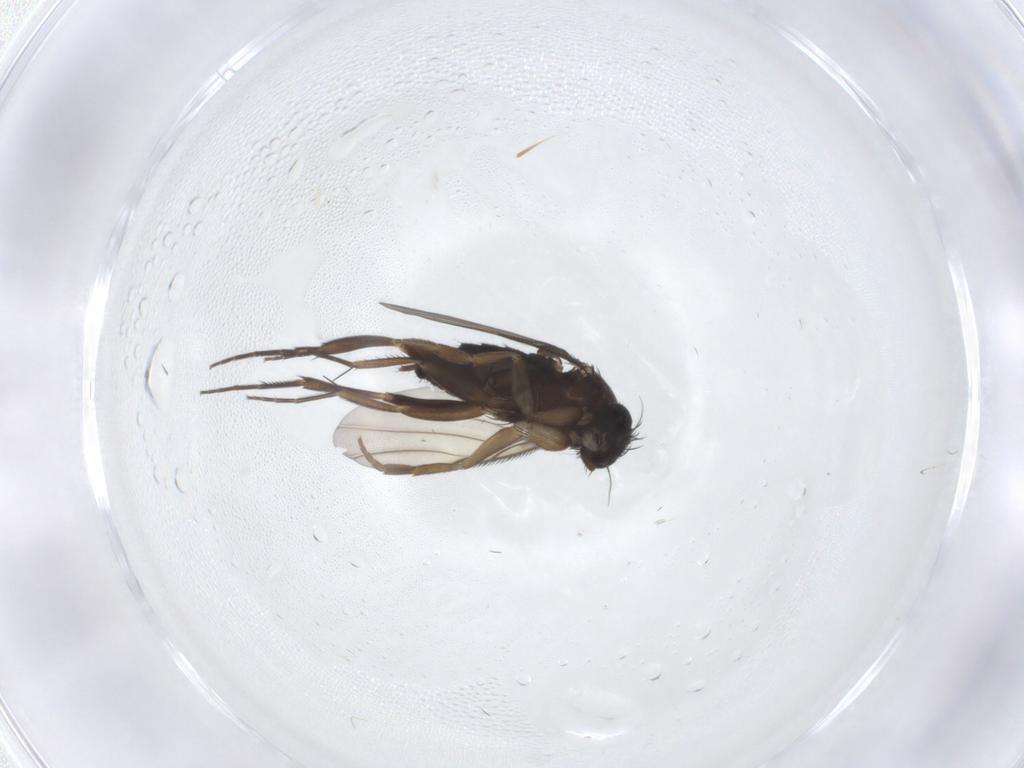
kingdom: Animalia
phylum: Arthropoda
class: Insecta
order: Diptera
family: Phoridae
